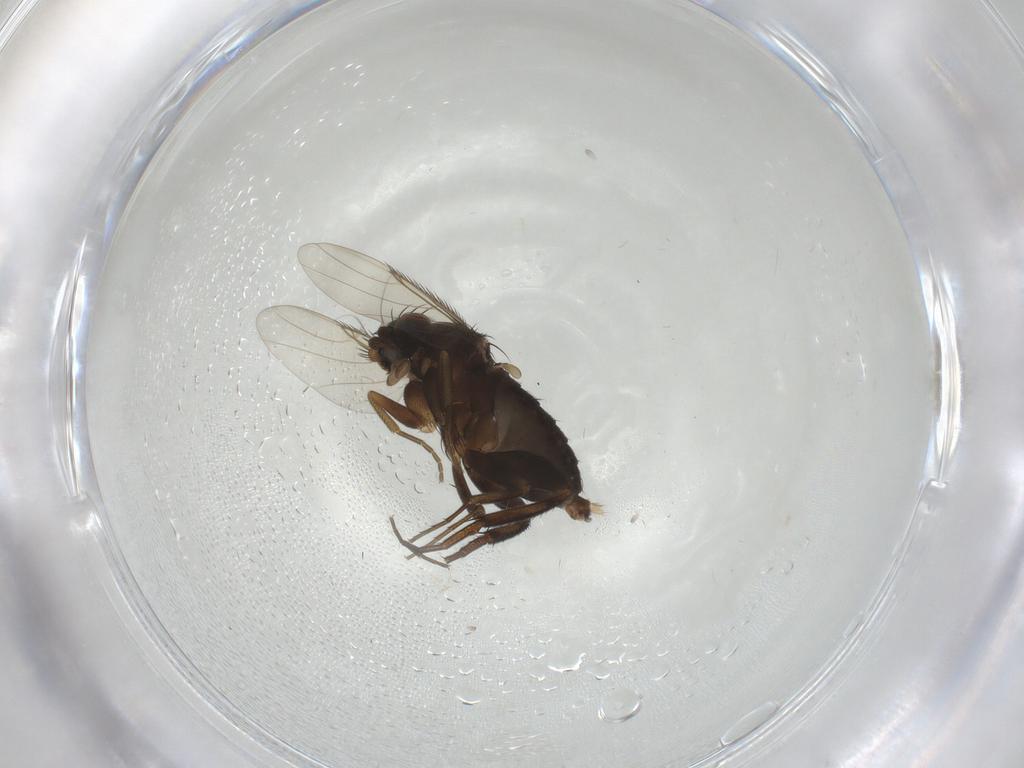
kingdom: Animalia
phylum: Arthropoda
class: Insecta
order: Diptera
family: Phoridae
